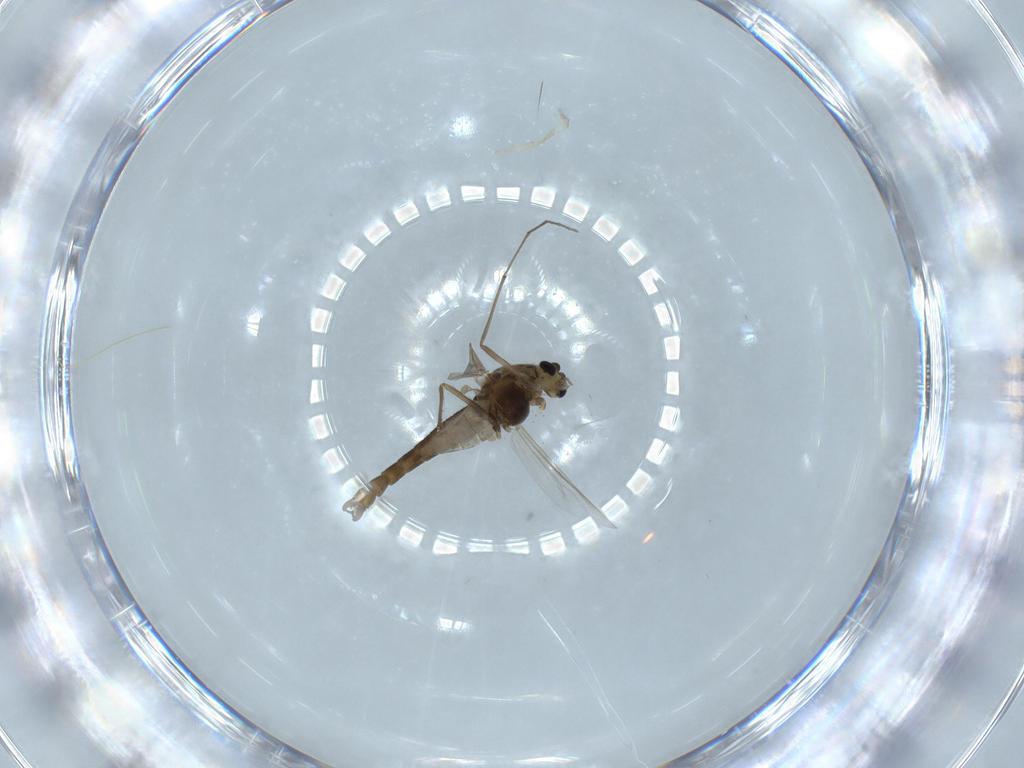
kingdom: Animalia
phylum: Arthropoda
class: Insecta
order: Diptera
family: Chironomidae
